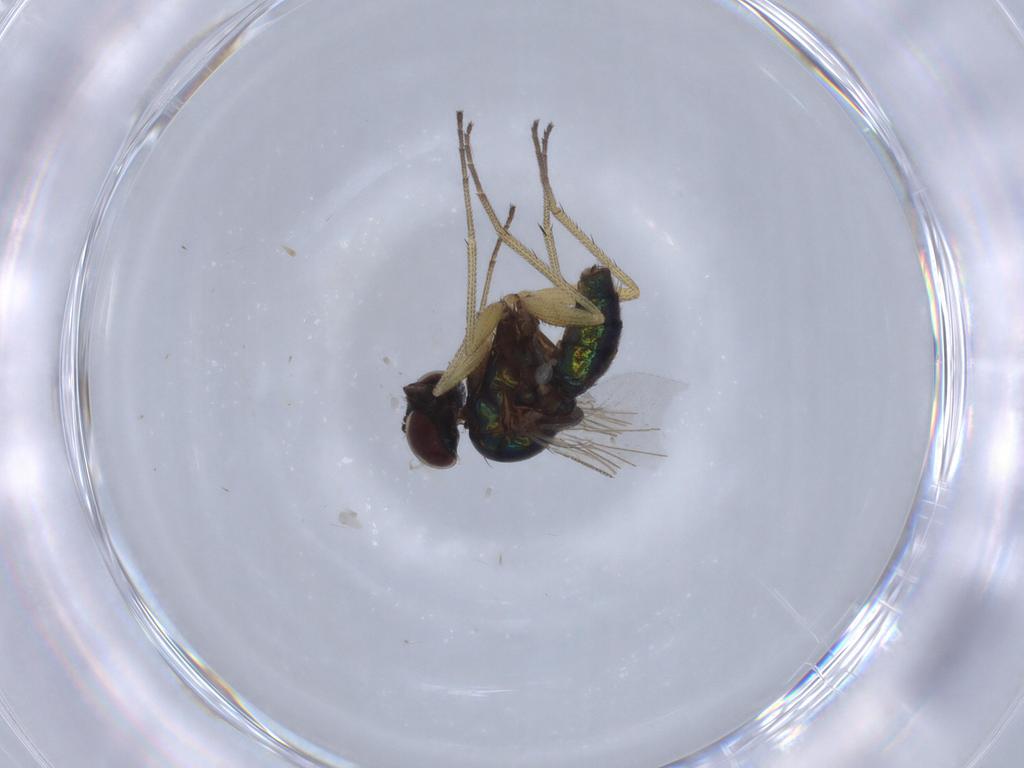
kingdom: Animalia
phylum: Arthropoda
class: Insecta
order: Diptera
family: Dolichopodidae
